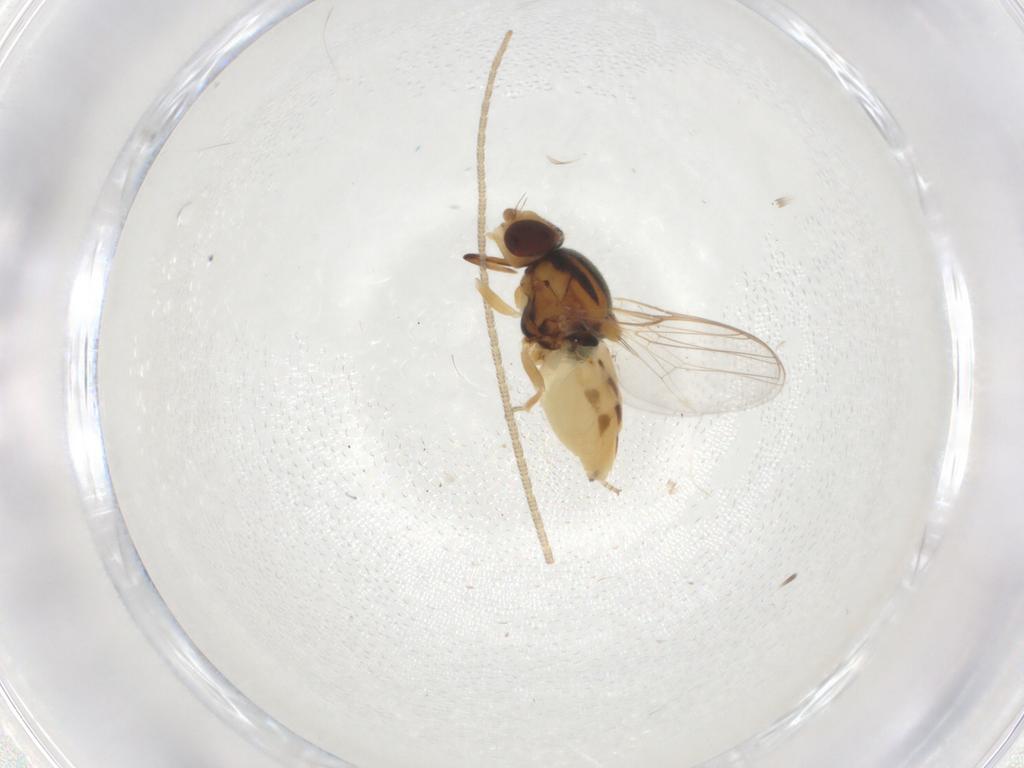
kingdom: Animalia
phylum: Arthropoda
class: Insecta
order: Diptera
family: Chloropidae
